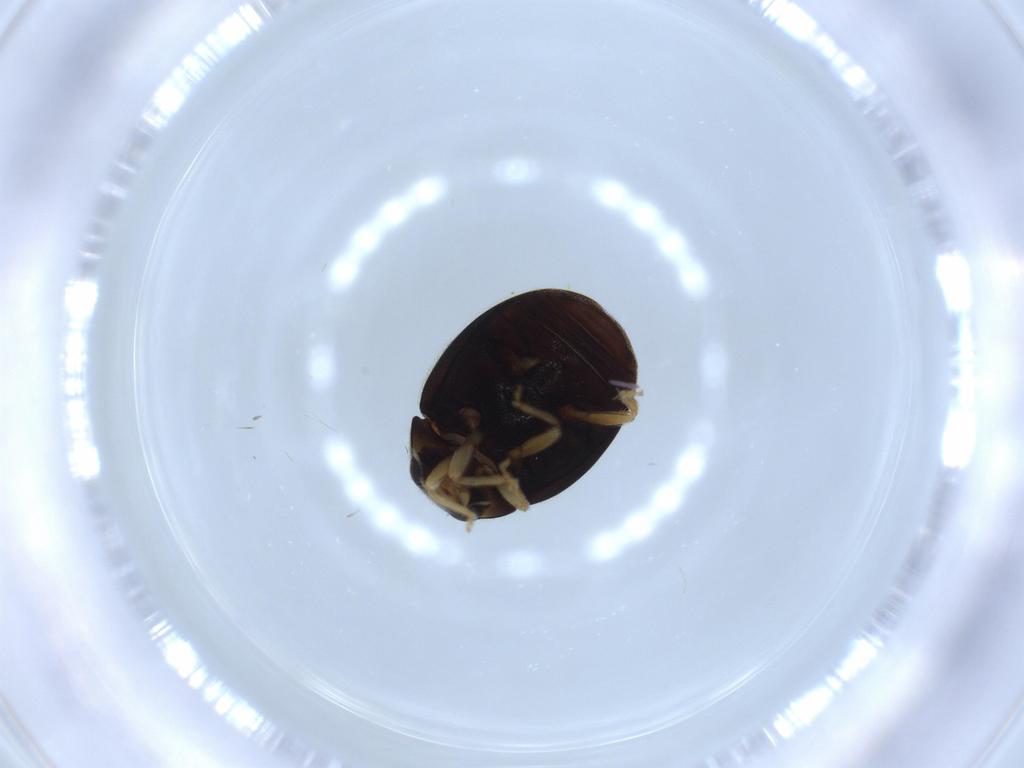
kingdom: Animalia
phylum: Arthropoda
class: Insecta
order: Coleoptera
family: Coccinellidae
